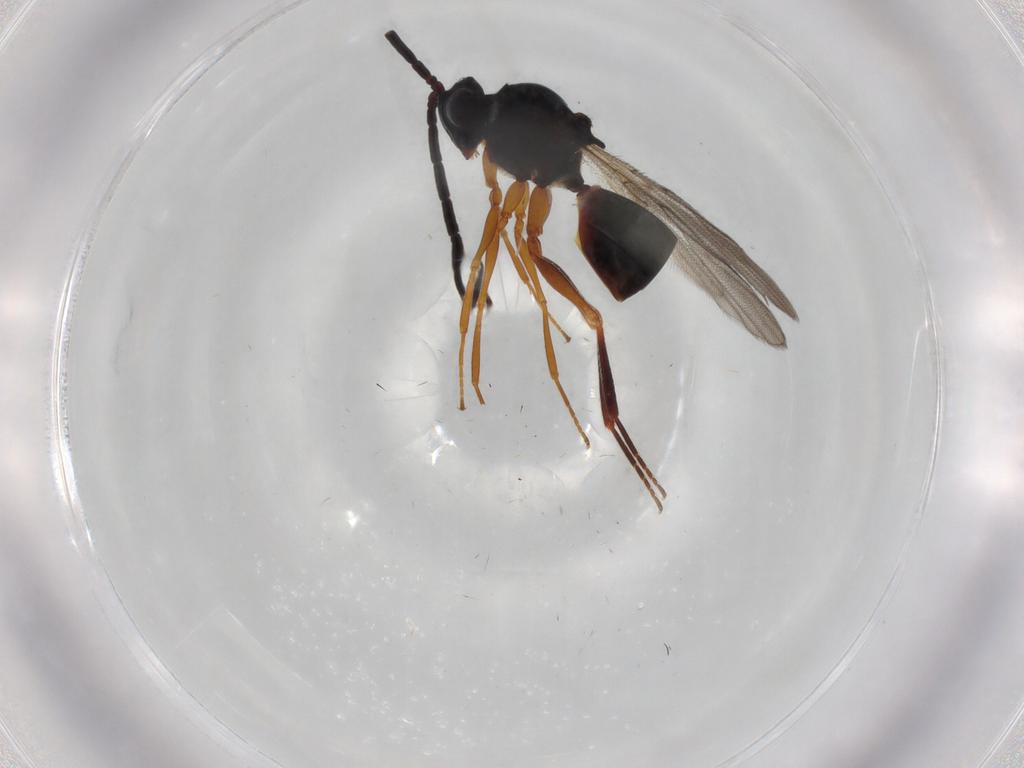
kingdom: Animalia
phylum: Arthropoda
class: Insecta
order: Hymenoptera
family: Figitidae
